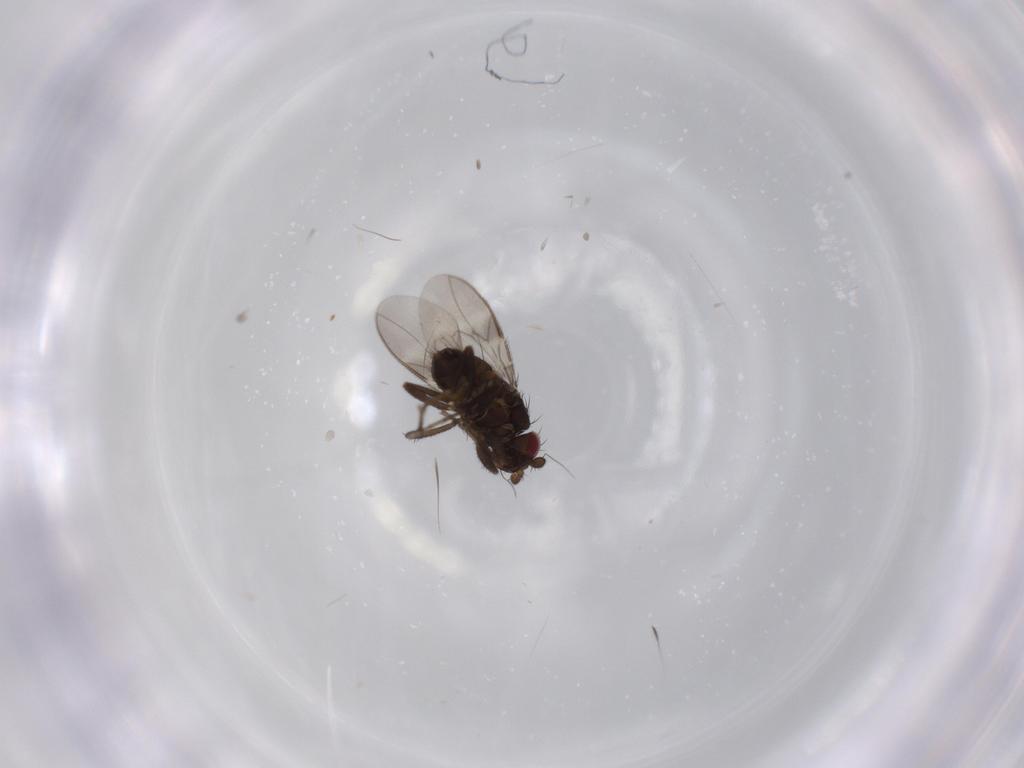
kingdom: Animalia
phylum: Arthropoda
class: Insecta
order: Diptera
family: Sphaeroceridae
